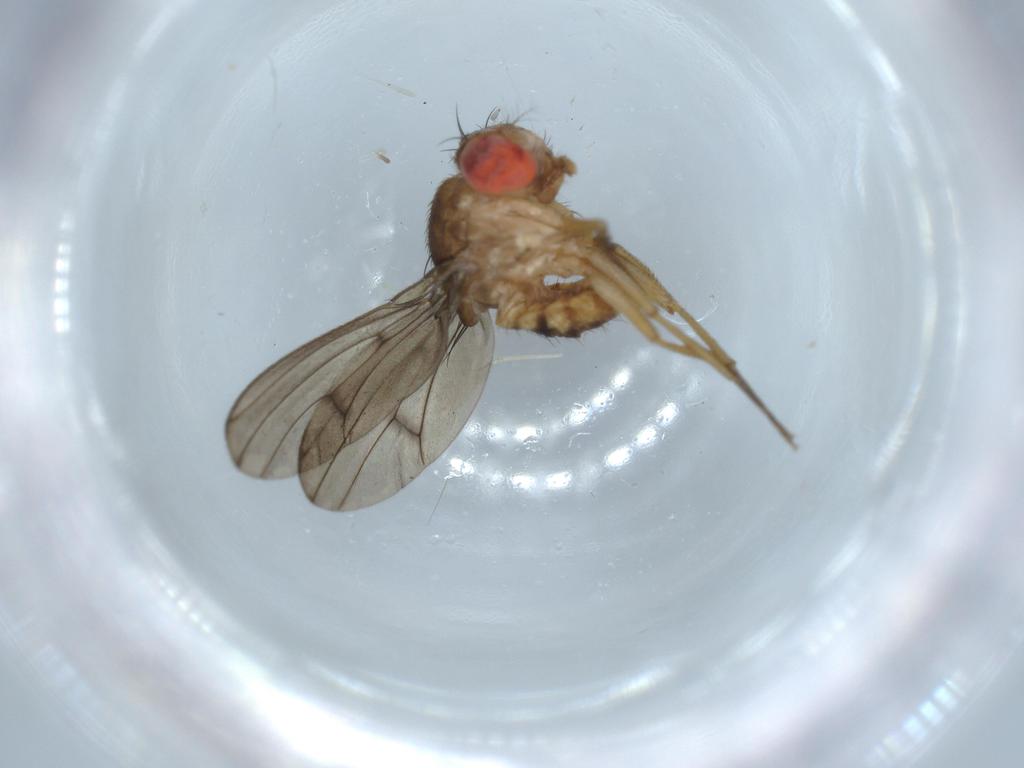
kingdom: Animalia
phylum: Arthropoda
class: Insecta
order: Diptera
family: Drosophilidae
